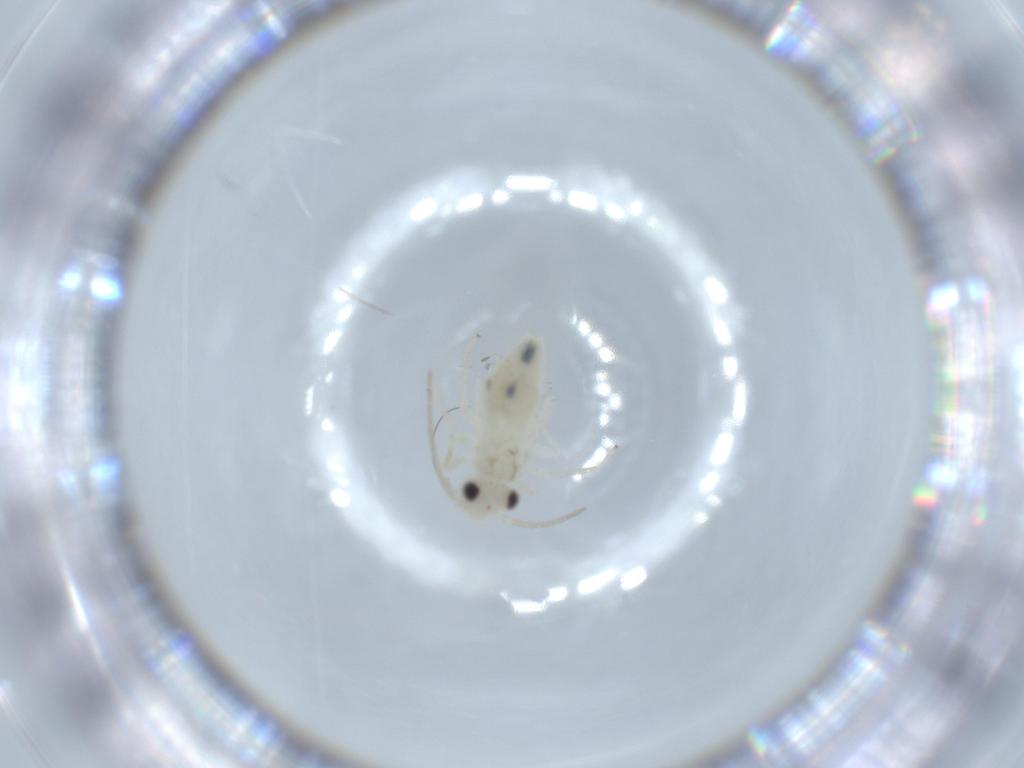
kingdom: Animalia
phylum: Arthropoda
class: Insecta
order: Psocodea
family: Caeciliusidae
